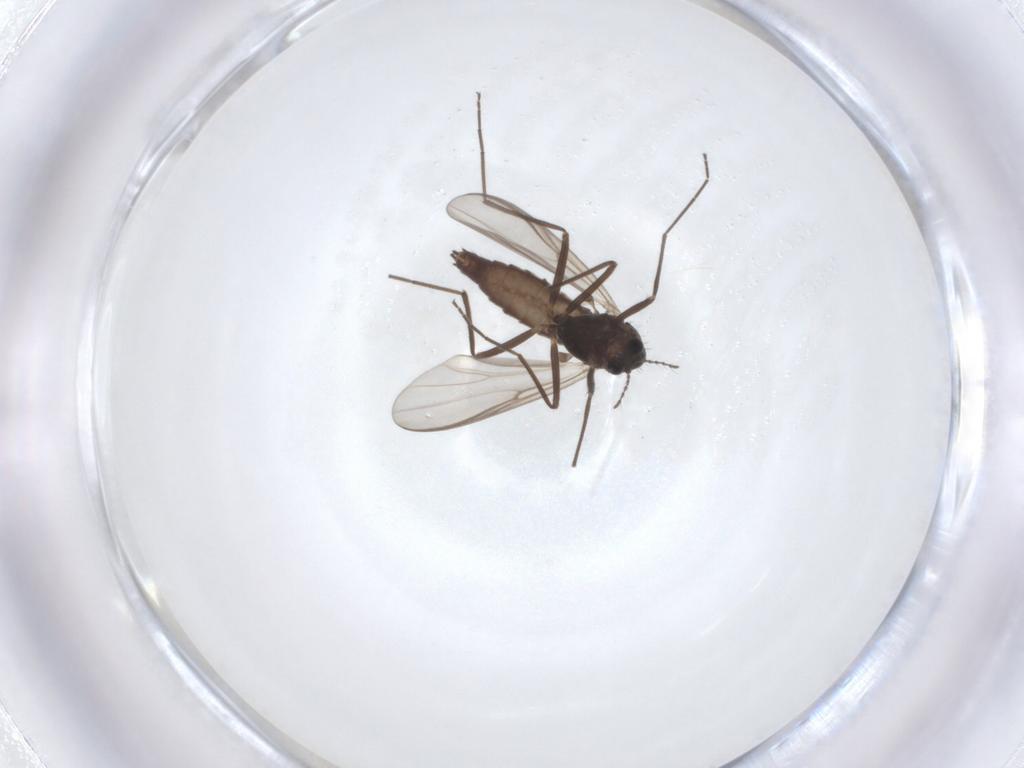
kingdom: Animalia
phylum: Arthropoda
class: Insecta
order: Diptera
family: Chironomidae
